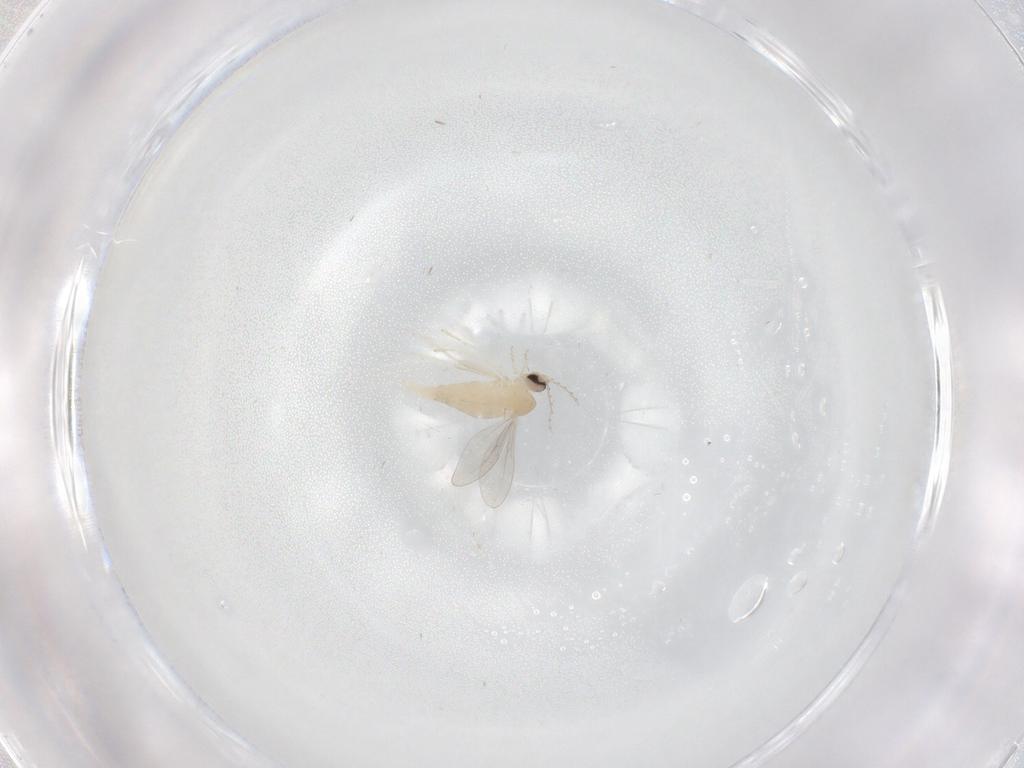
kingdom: Animalia
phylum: Arthropoda
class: Insecta
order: Diptera
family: Cecidomyiidae
